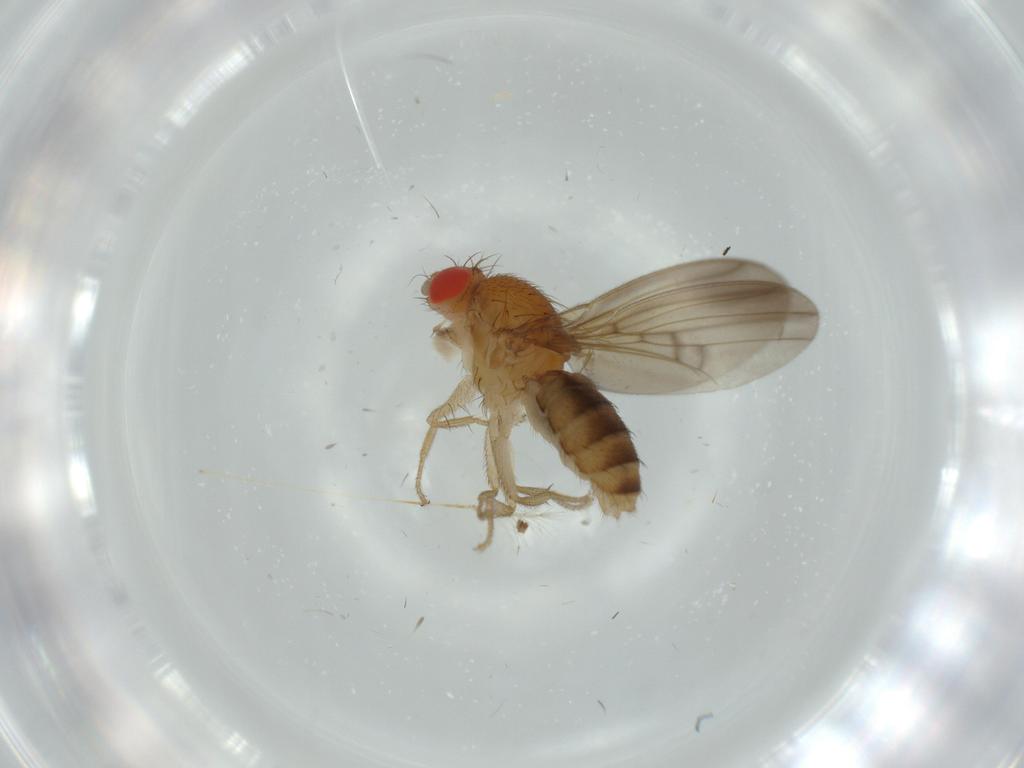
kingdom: Animalia
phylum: Arthropoda
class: Insecta
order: Diptera
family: Drosophilidae
